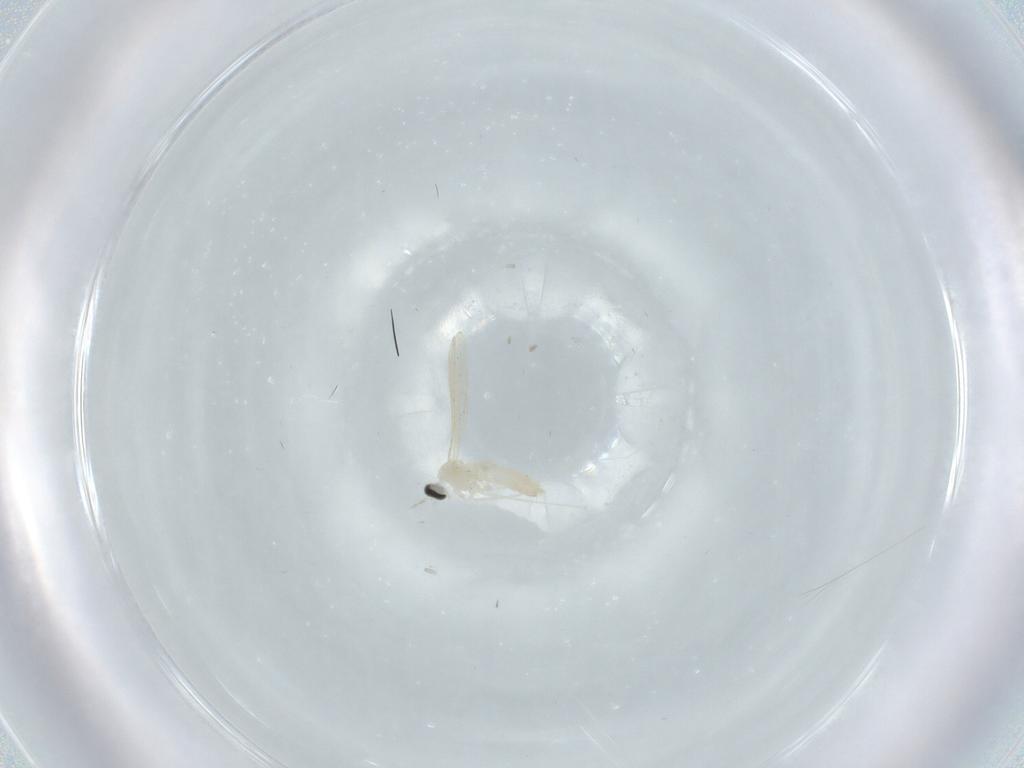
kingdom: Animalia
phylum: Arthropoda
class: Insecta
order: Diptera
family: Cecidomyiidae
